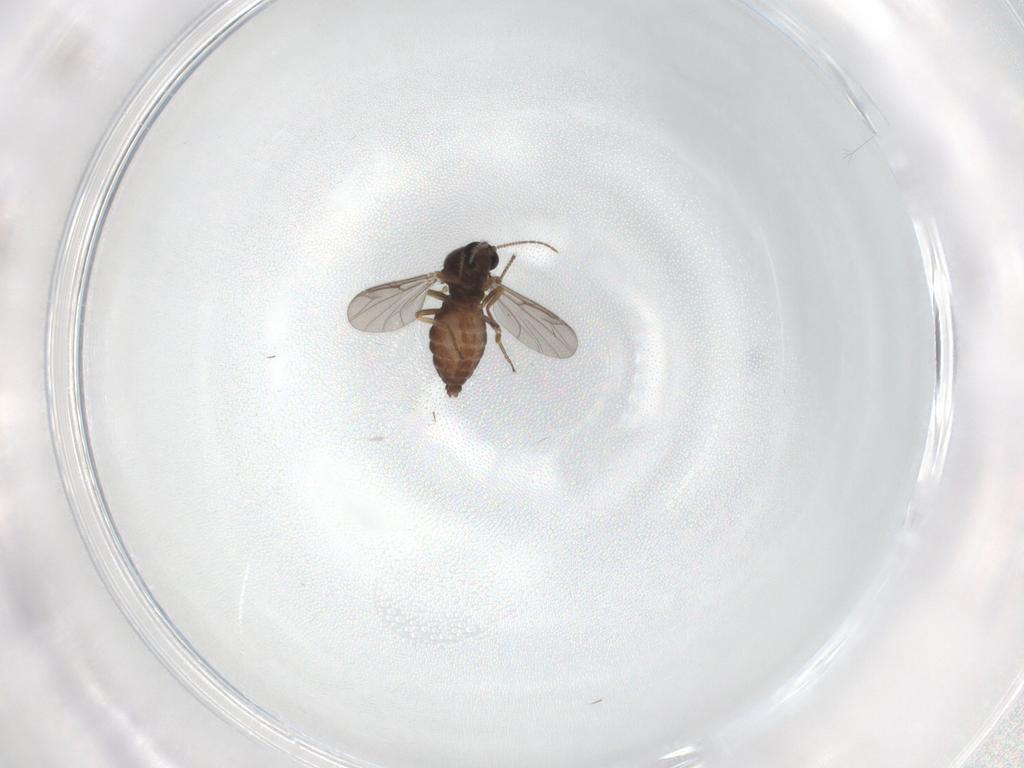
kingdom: Animalia
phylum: Arthropoda
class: Insecta
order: Diptera
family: Ceratopogonidae
